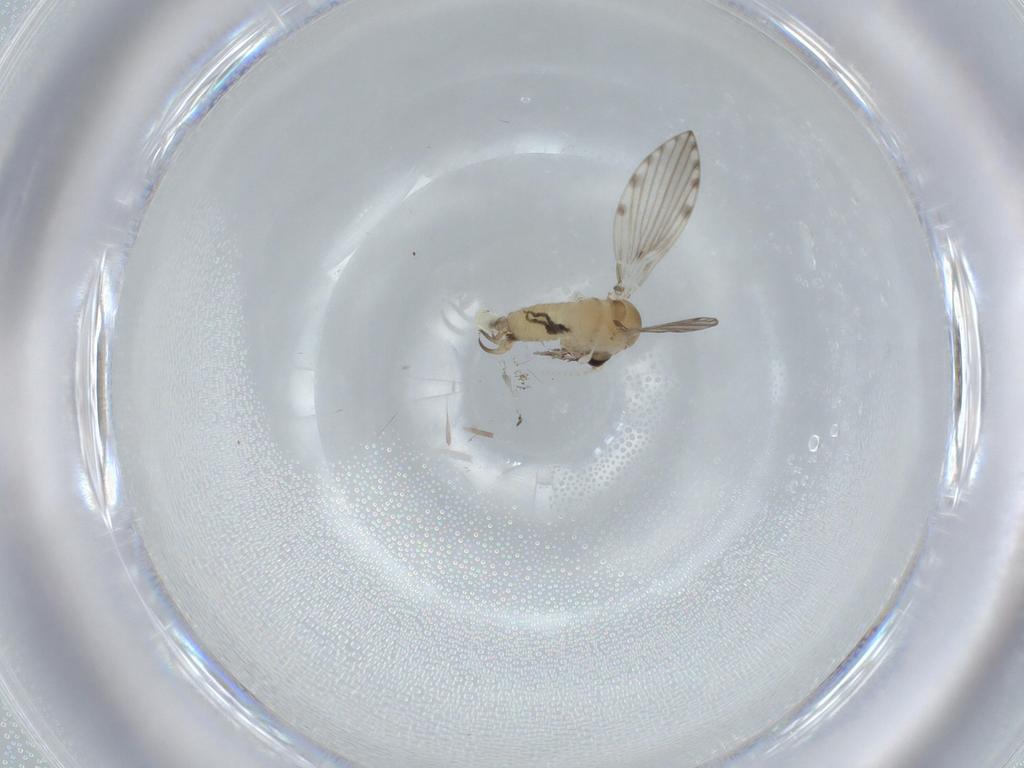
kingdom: Animalia
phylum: Arthropoda
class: Insecta
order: Diptera
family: Psychodidae
